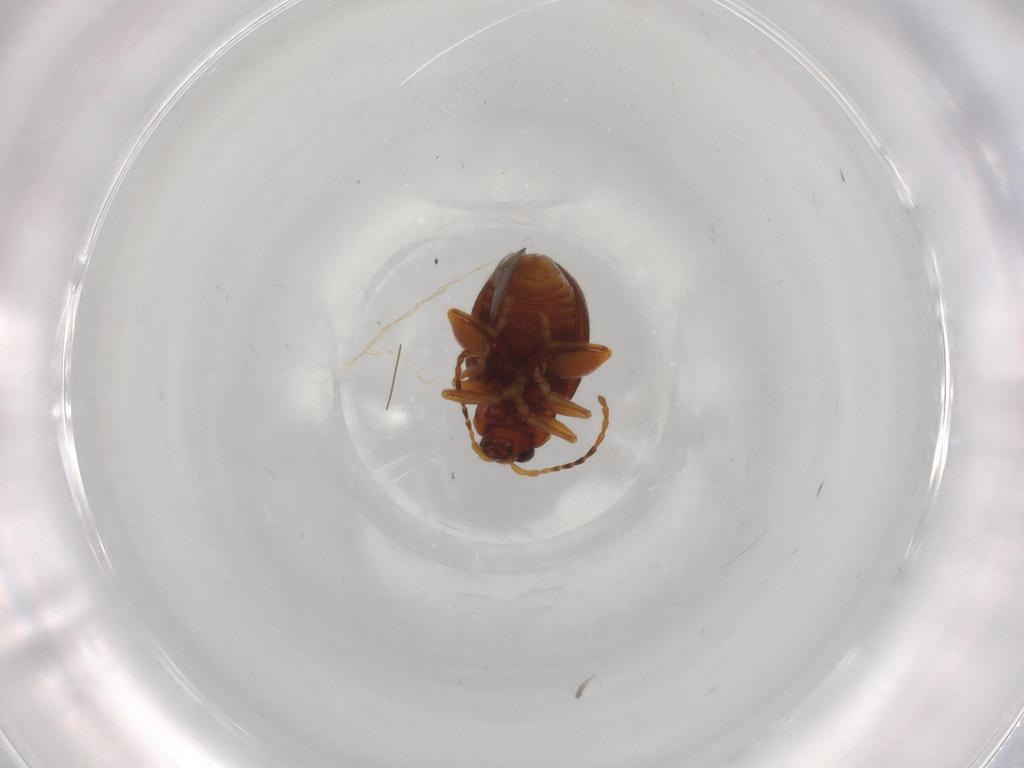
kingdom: Animalia
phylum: Arthropoda
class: Insecta
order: Coleoptera
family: Chrysomelidae
